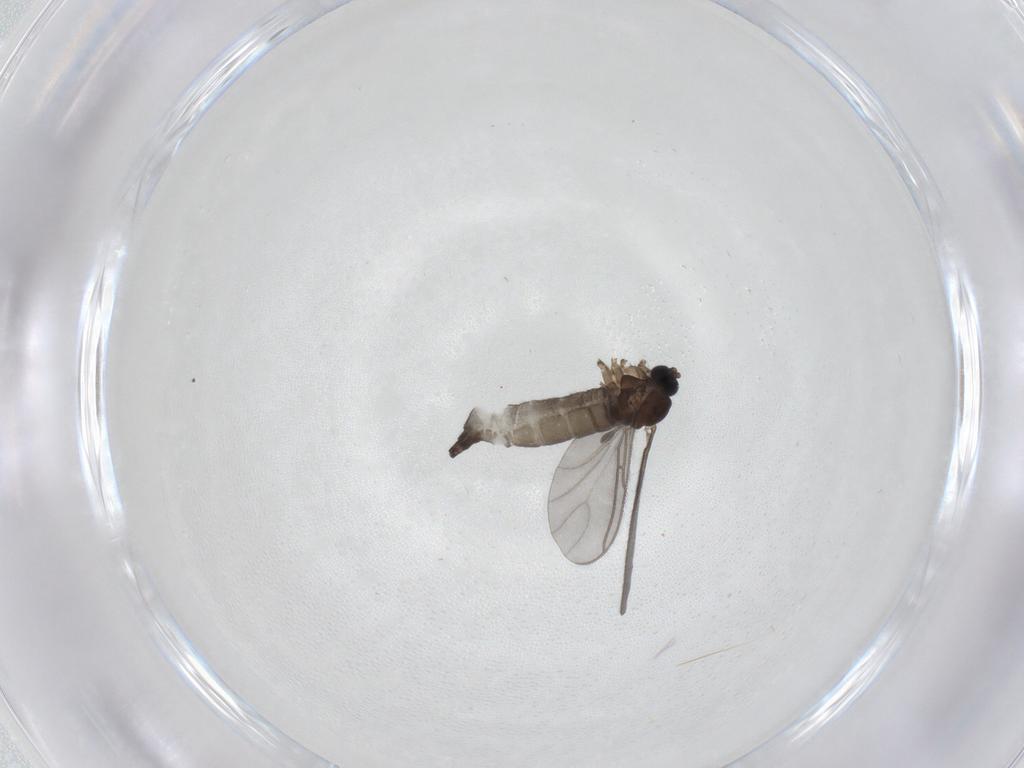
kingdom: Animalia
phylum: Arthropoda
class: Insecta
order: Diptera
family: Sciaridae
